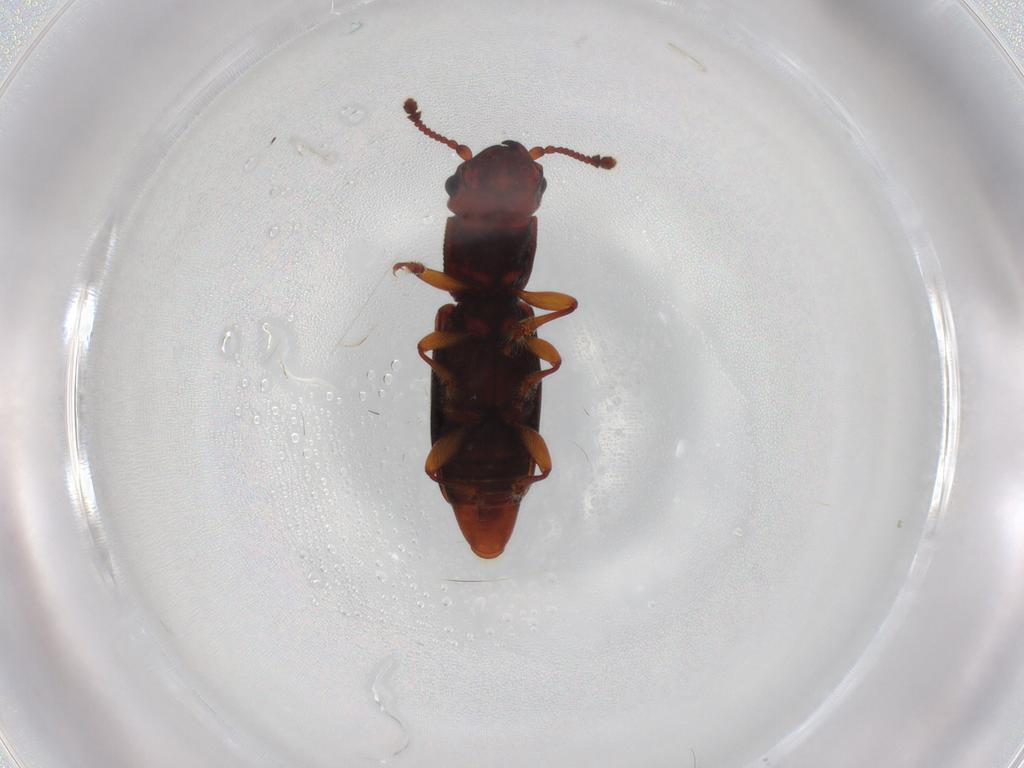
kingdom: Animalia
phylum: Arthropoda
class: Insecta
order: Coleoptera
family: Monotomidae
